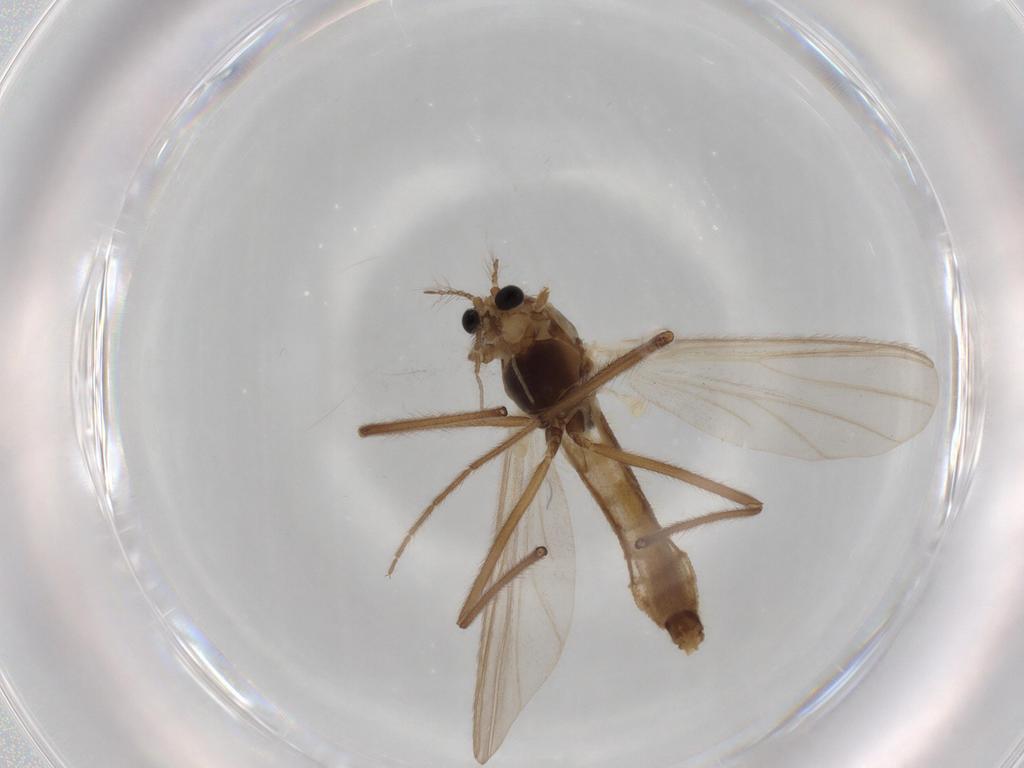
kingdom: Animalia
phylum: Arthropoda
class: Insecta
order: Diptera
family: Chironomidae
